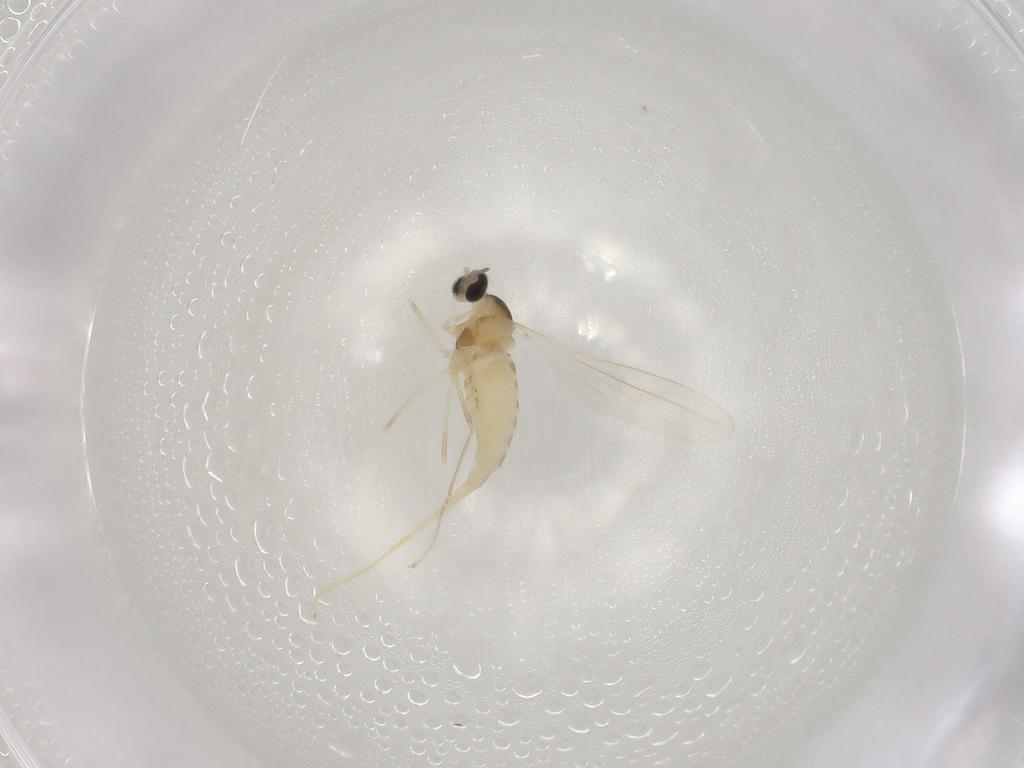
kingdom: Animalia
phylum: Arthropoda
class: Insecta
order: Diptera
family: Cecidomyiidae
